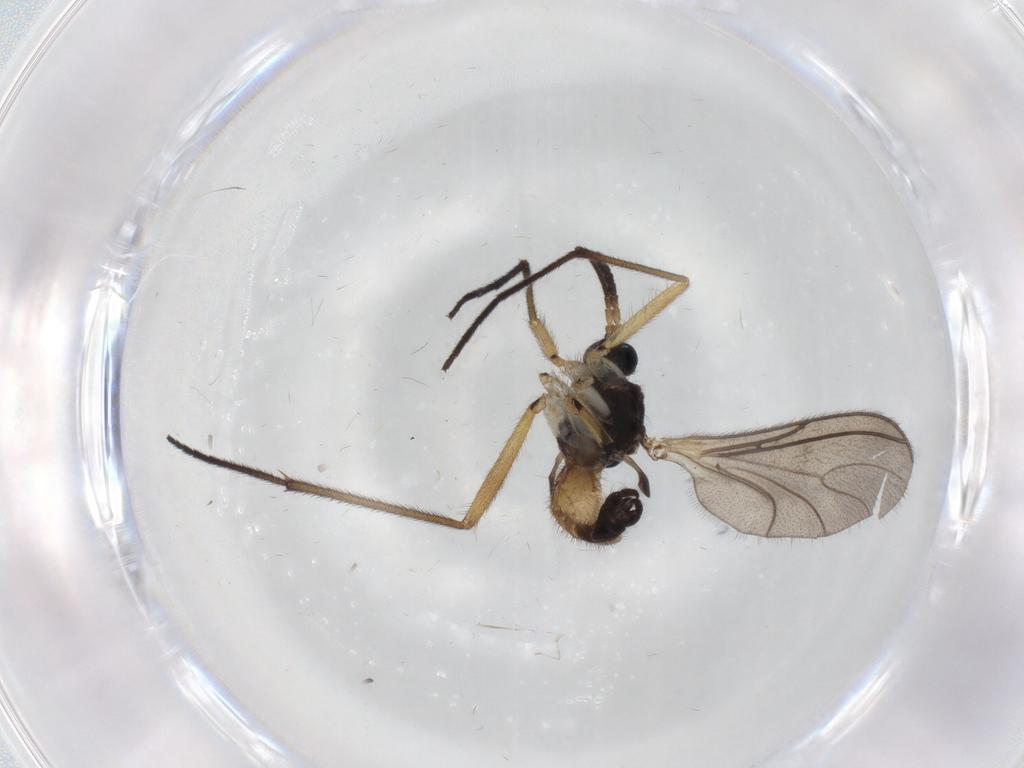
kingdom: Animalia
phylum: Arthropoda
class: Insecta
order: Diptera
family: Sciaridae
